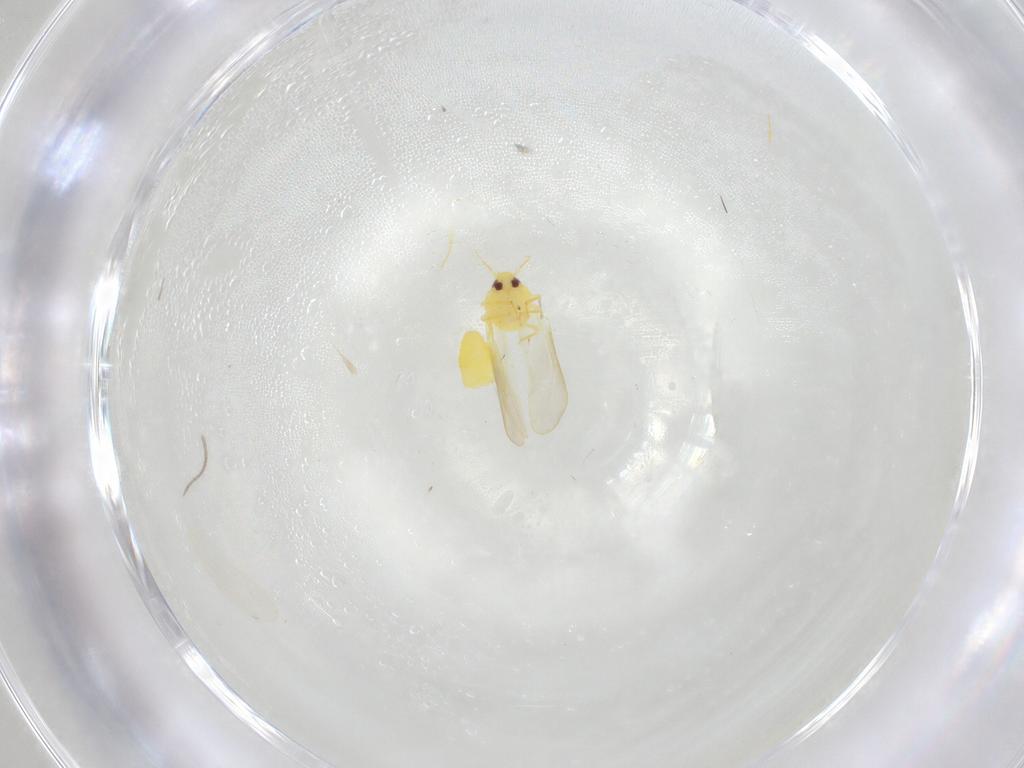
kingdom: Animalia
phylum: Arthropoda
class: Insecta
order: Hemiptera
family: Aleyrodidae
